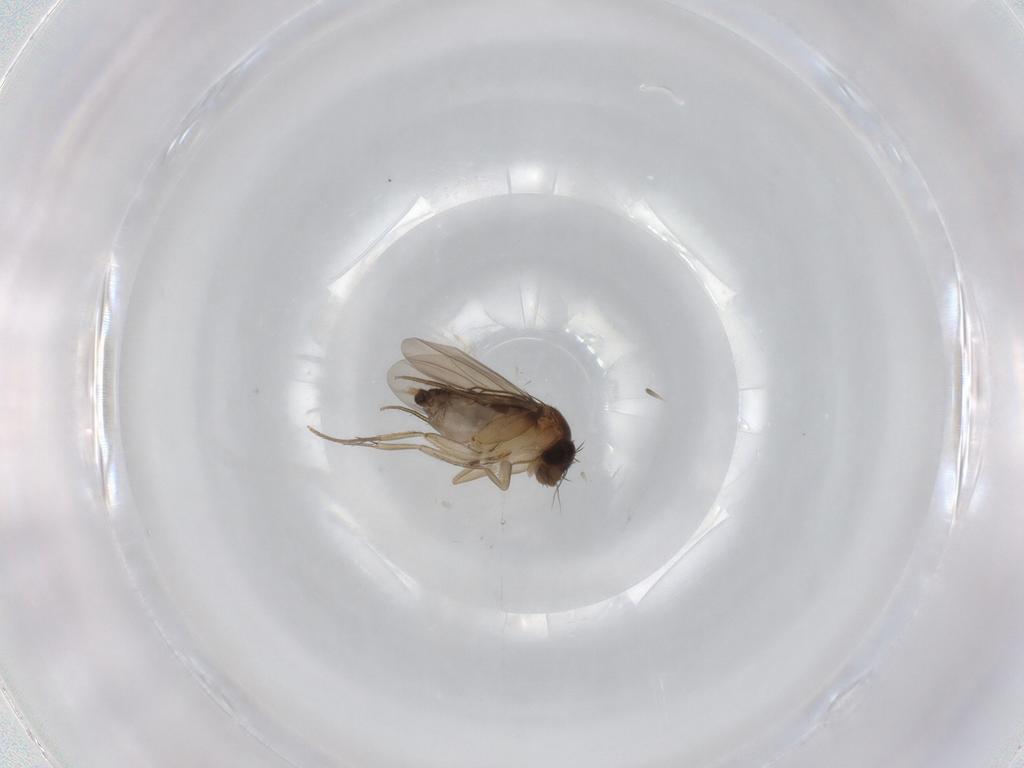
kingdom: Animalia
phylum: Arthropoda
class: Insecta
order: Diptera
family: Phoridae
